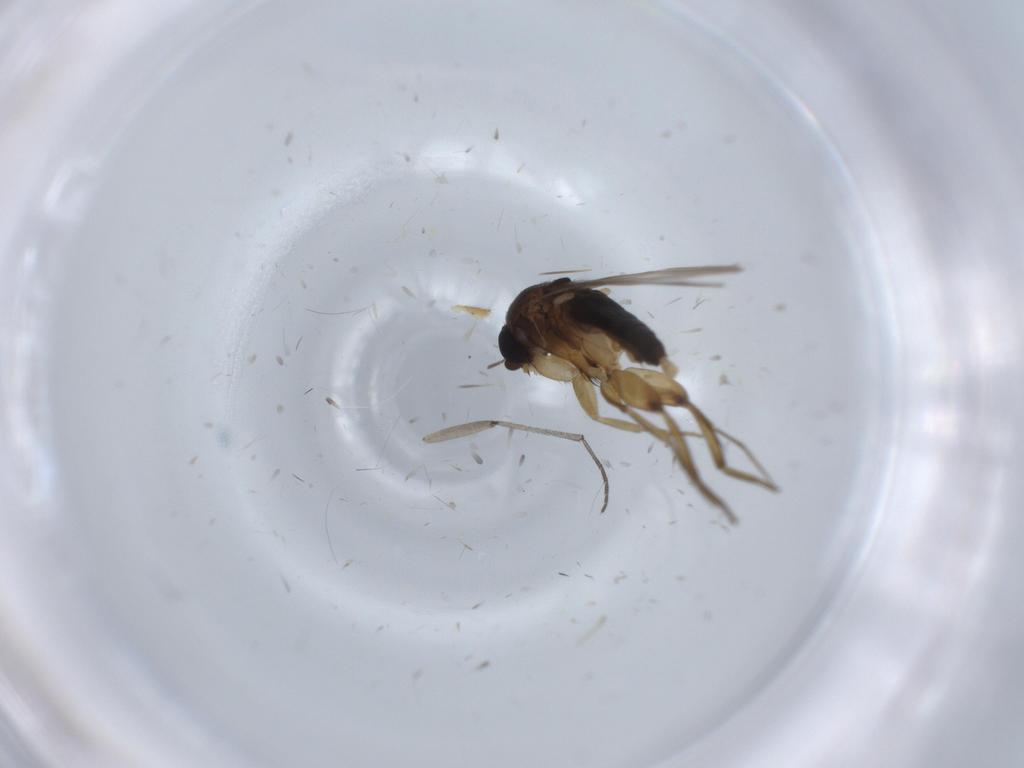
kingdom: Animalia
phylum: Arthropoda
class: Insecta
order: Diptera
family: Phoridae
